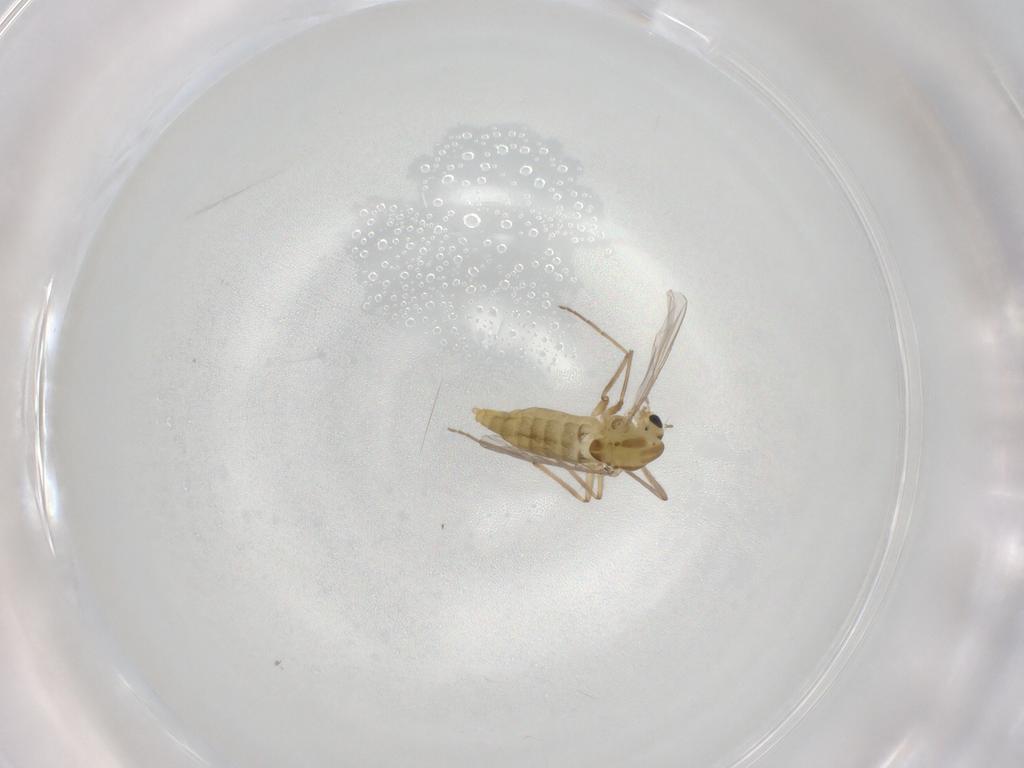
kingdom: Animalia
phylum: Arthropoda
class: Insecta
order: Diptera
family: Chironomidae
